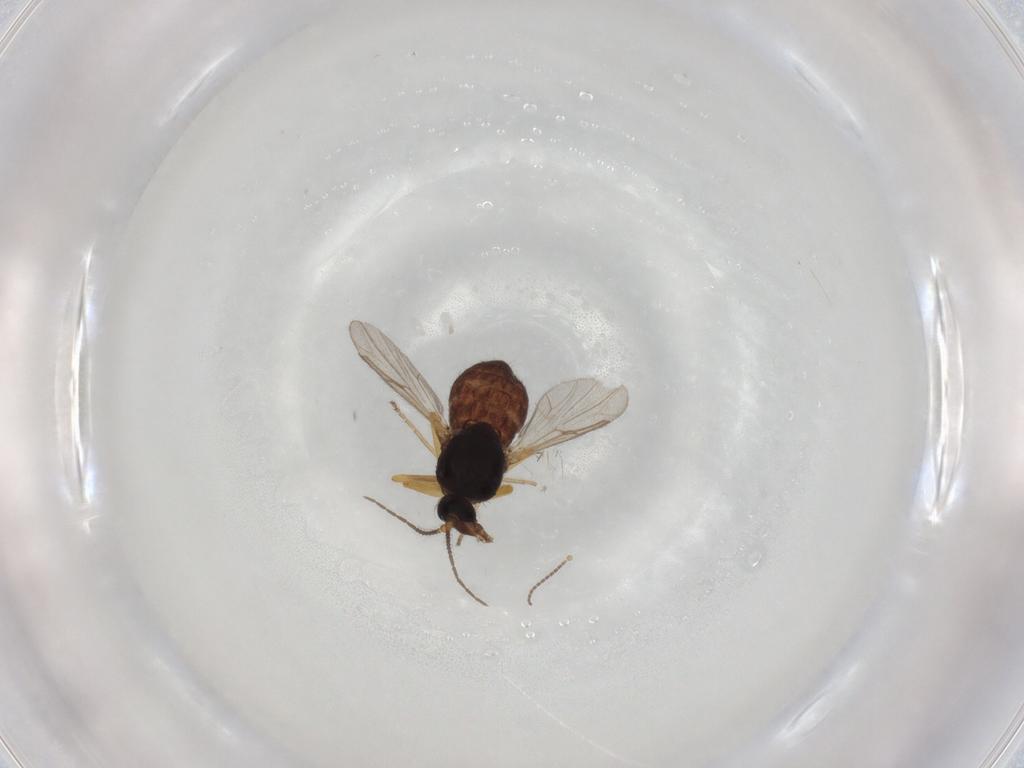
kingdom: Animalia
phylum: Arthropoda
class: Insecta
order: Diptera
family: Ceratopogonidae
